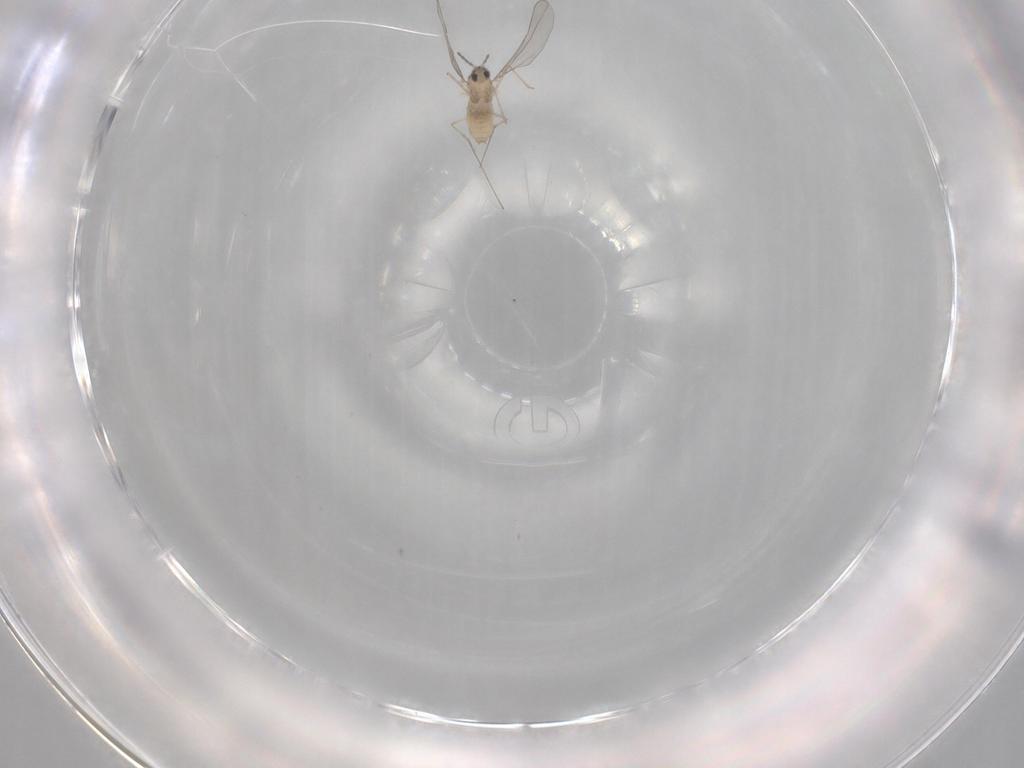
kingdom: Animalia
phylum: Arthropoda
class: Insecta
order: Diptera
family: Cecidomyiidae
